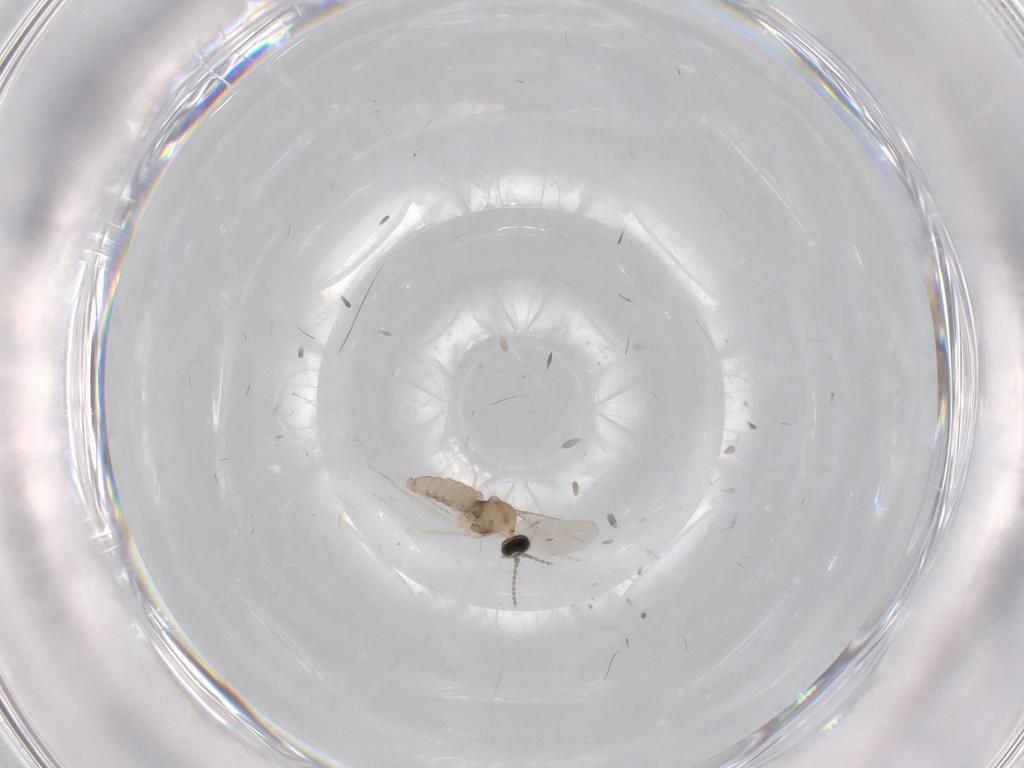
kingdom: Animalia
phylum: Arthropoda
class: Insecta
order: Diptera
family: Cecidomyiidae
